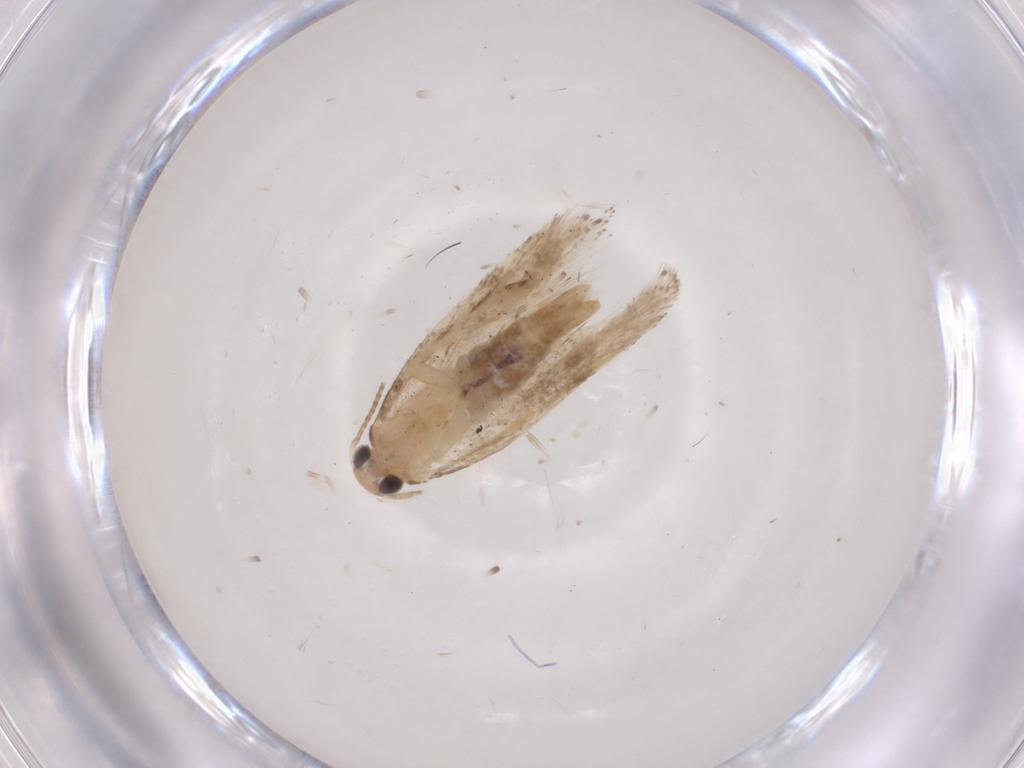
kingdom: Animalia
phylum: Arthropoda
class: Insecta
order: Lepidoptera
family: Gelechiidae
